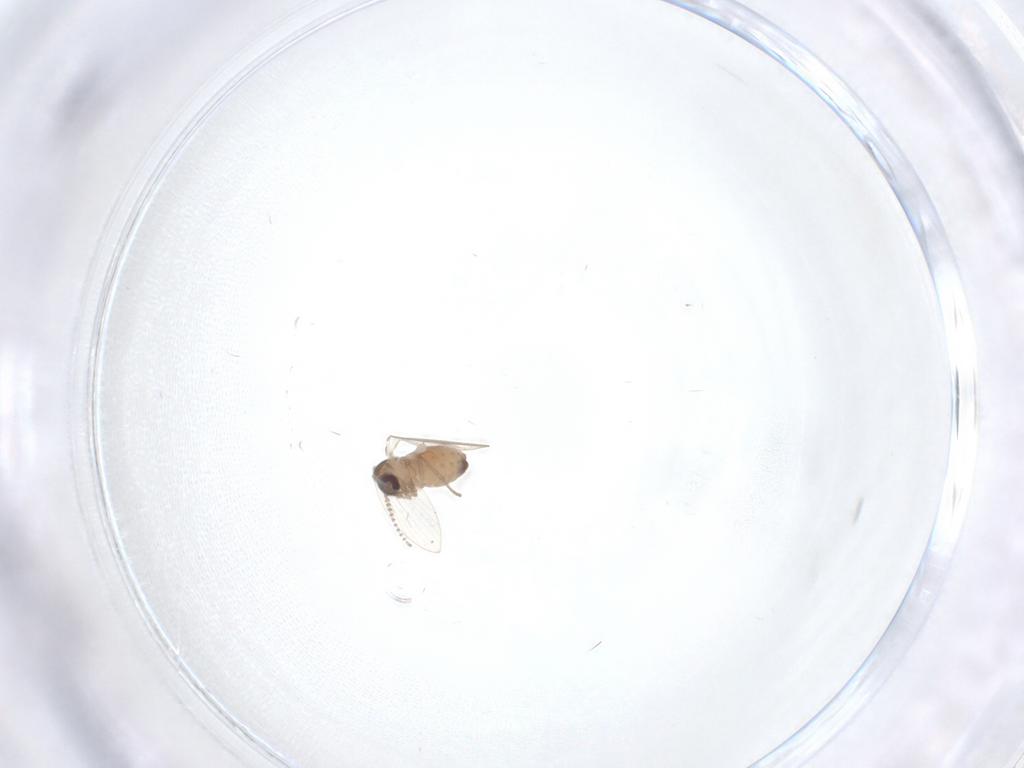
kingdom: Animalia
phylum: Arthropoda
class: Insecta
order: Diptera
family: Psychodidae
